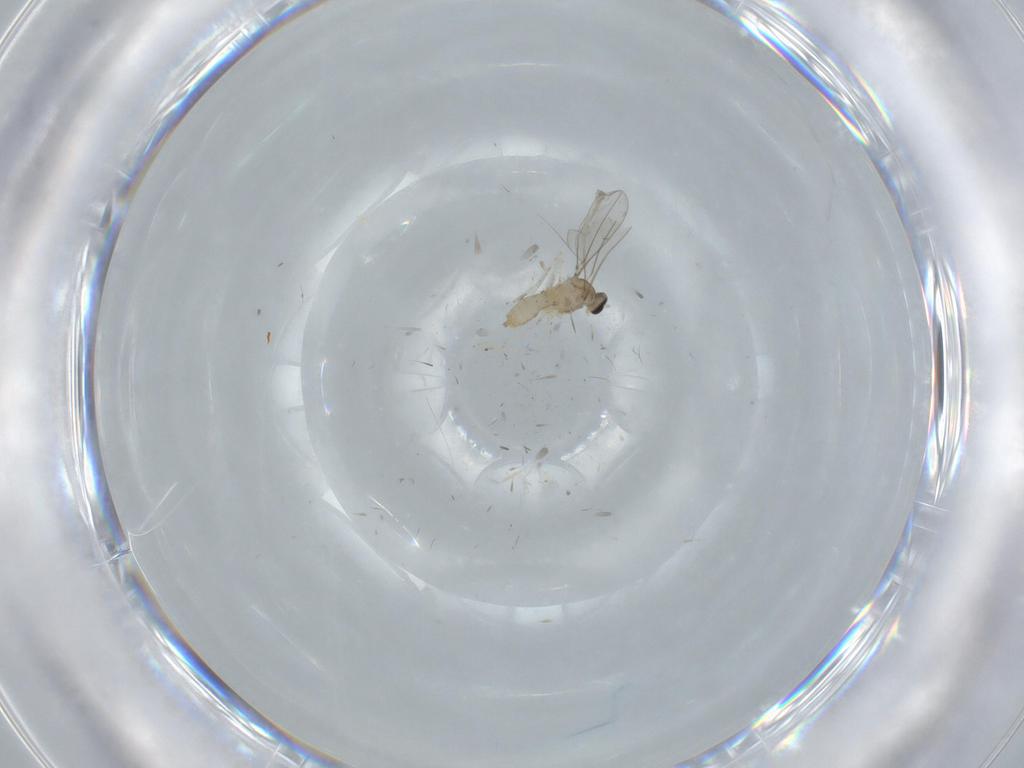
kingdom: Animalia
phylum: Arthropoda
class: Insecta
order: Diptera
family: Chironomidae
